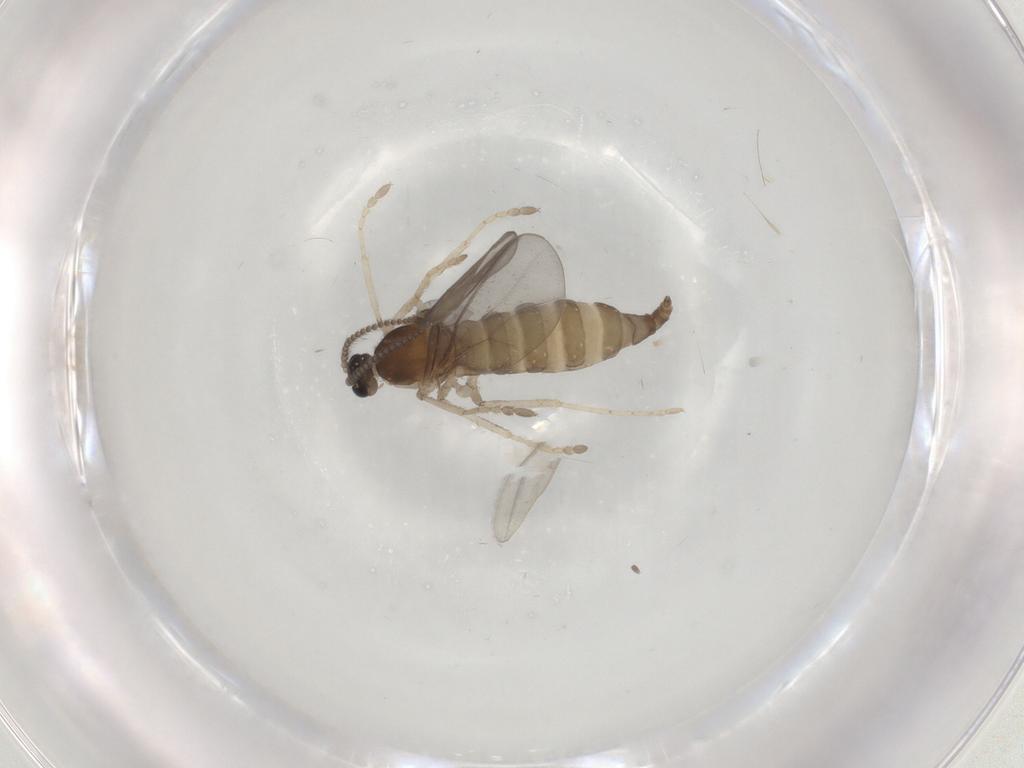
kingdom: Animalia
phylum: Arthropoda
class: Insecta
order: Diptera
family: Cecidomyiidae
